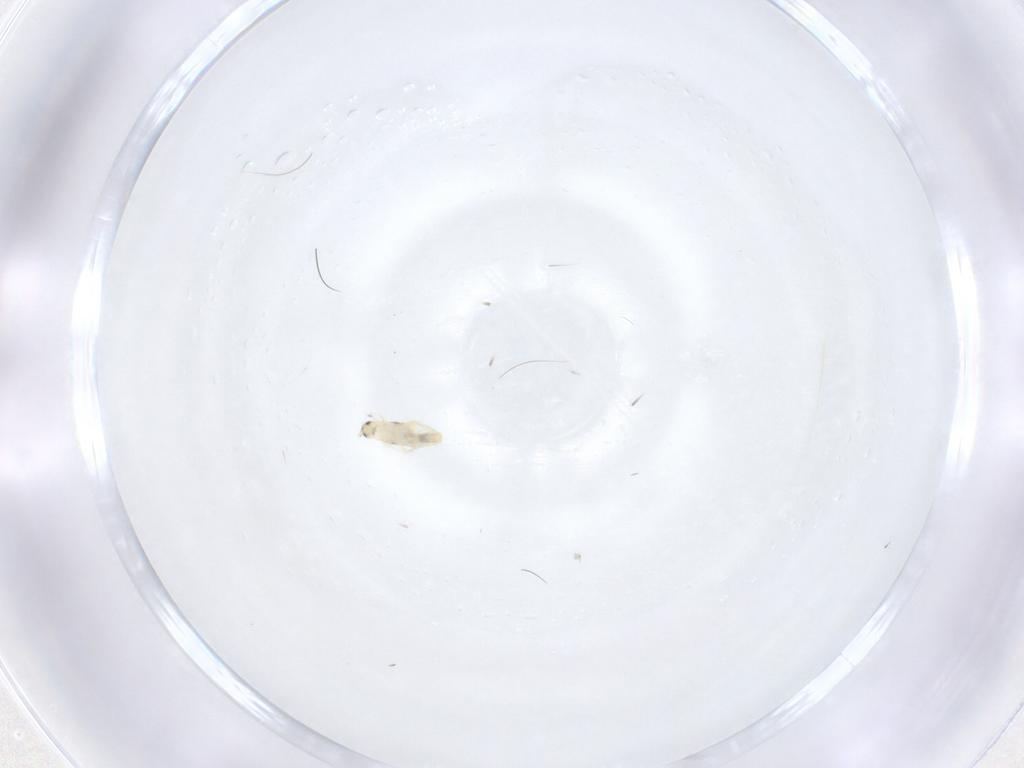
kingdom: Animalia
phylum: Arthropoda
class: Collembola
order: Entomobryomorpha
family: Entomobryidae
